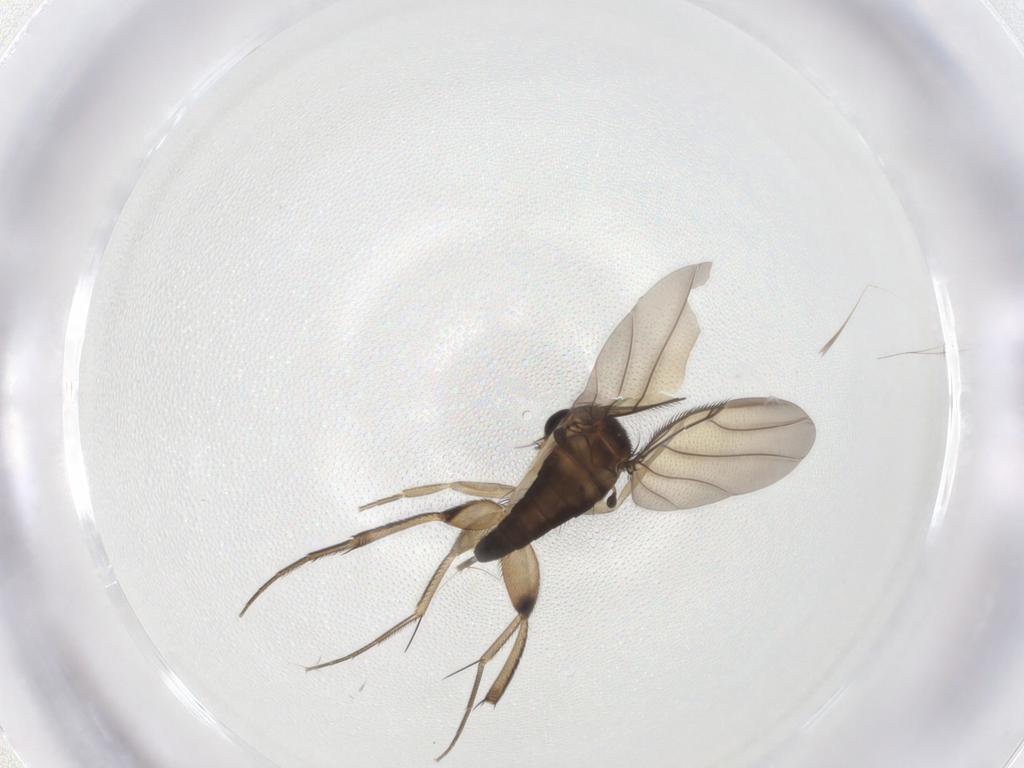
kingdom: Animalia
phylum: Arthropoda
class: Insecta
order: Diptera
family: Phoridae
